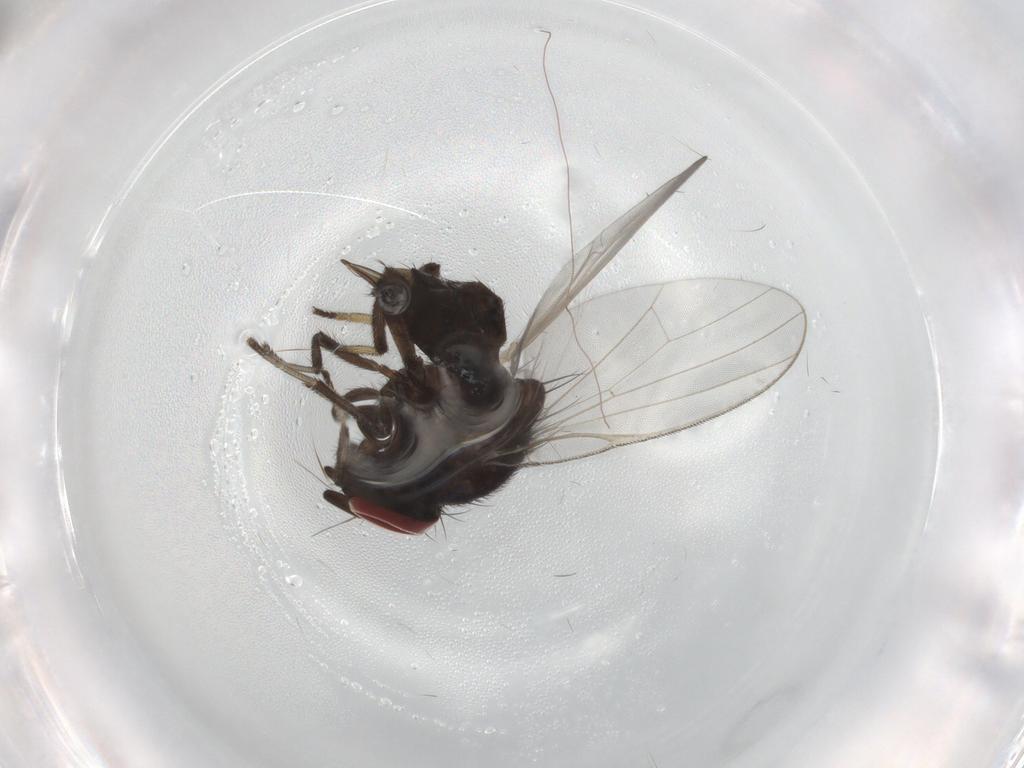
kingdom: Animalia
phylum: Arthropoda
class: Insecta
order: Diptera
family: Lonchaeidae
